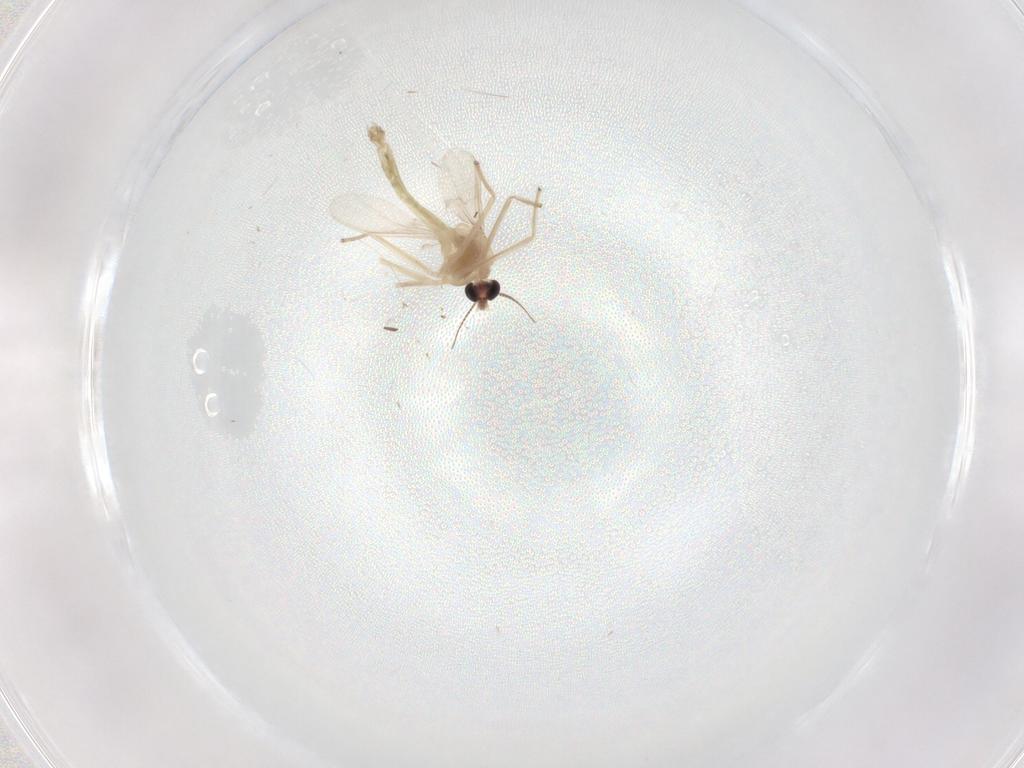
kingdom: Animalia
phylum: Arthropoda
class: Insecta
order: Diptera
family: Chironomidae
